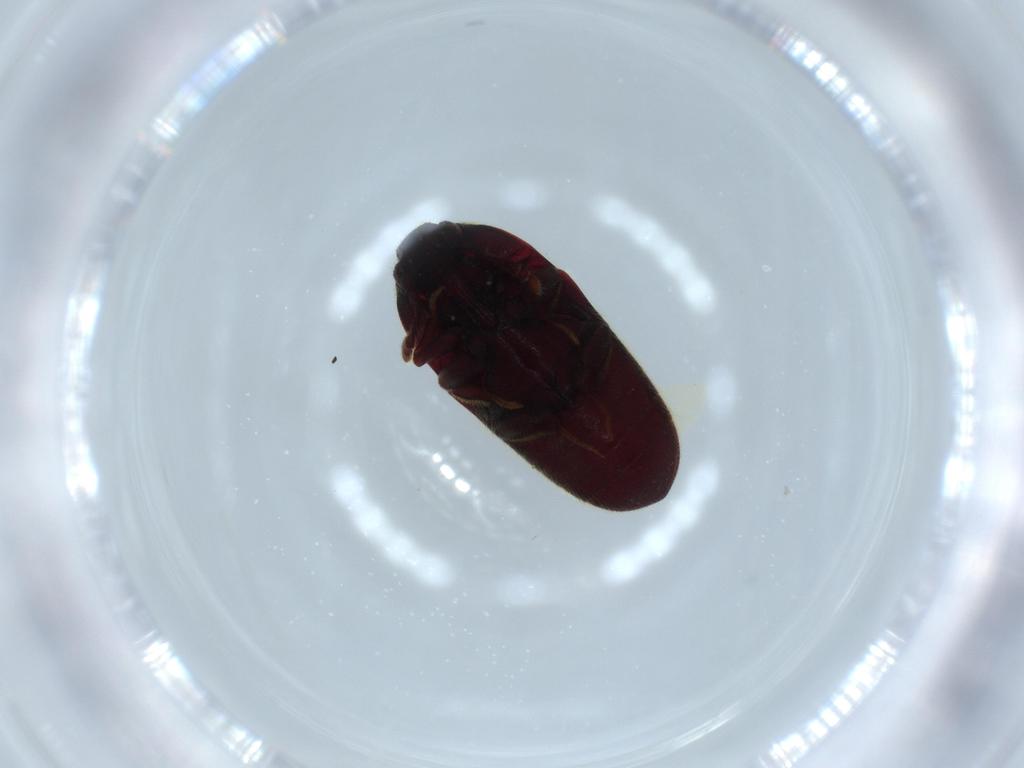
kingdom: Animalia
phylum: Arthropoda
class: Insecta
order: Coleoptera
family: Throscidae
